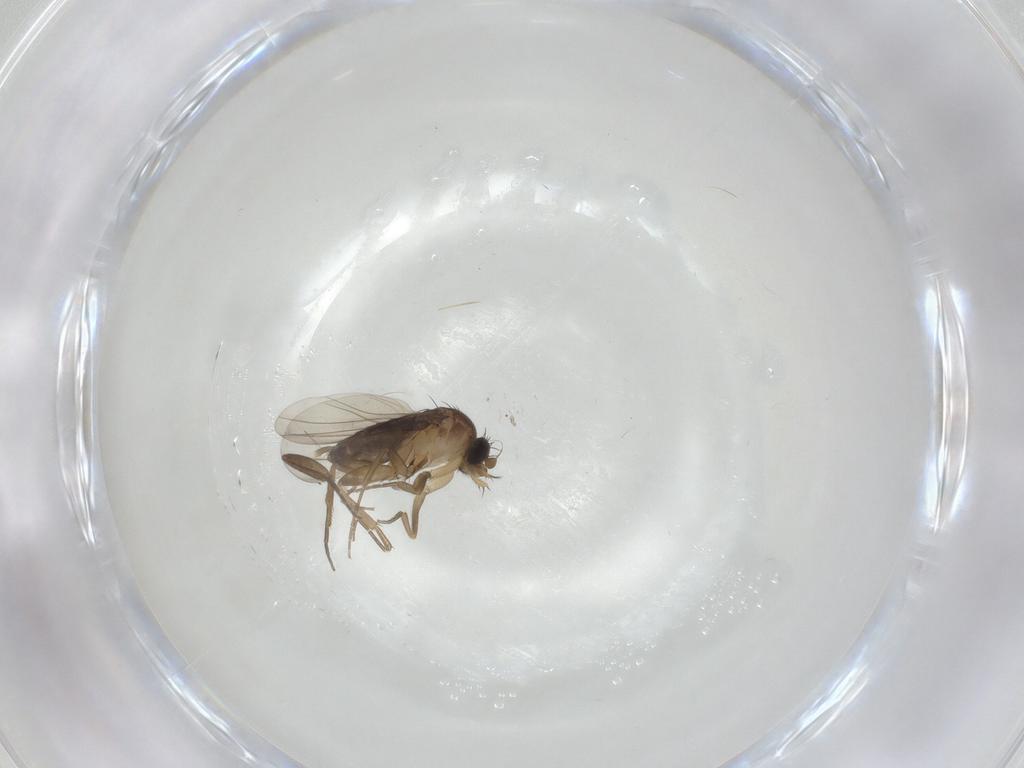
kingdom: Animalia
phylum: Arthropoda
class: Insecta
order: Diptera
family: Phoridae
